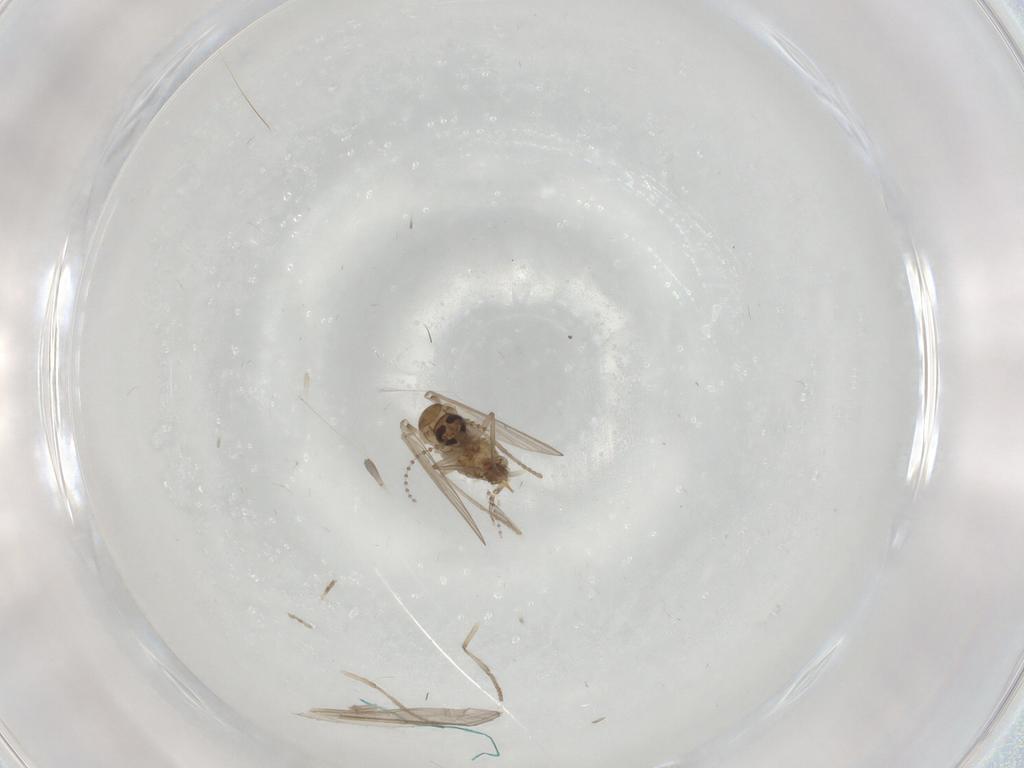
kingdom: Animalia
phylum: Arthropoda
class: Insecta
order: Diptera
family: Psychodidae
